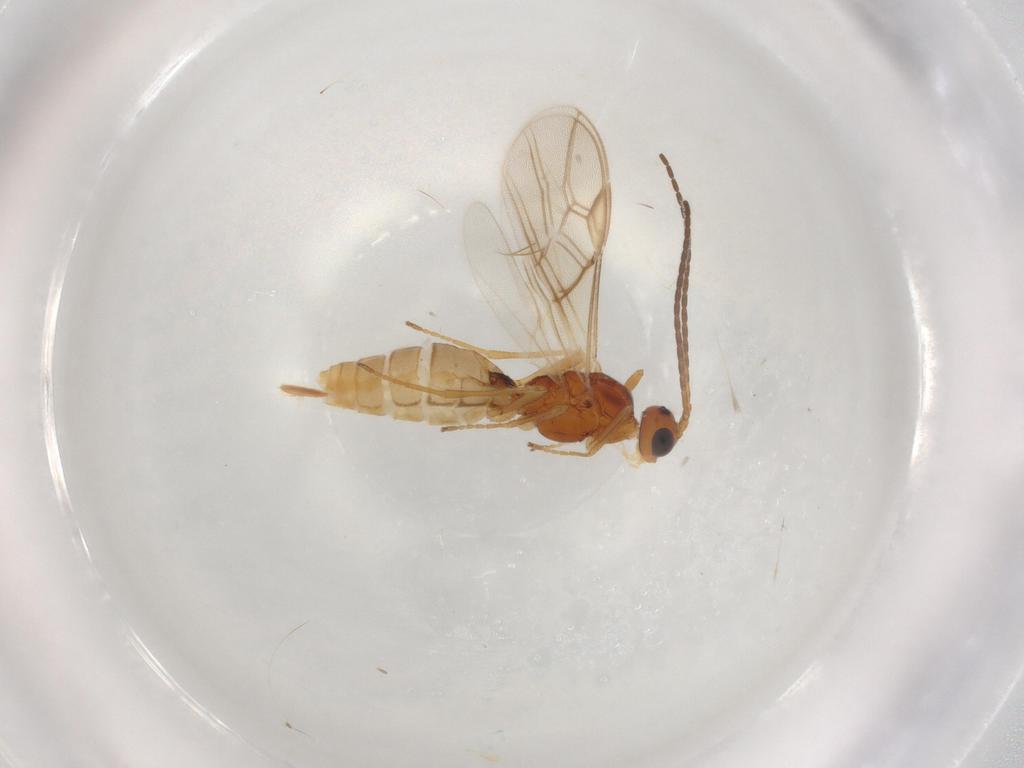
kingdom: Animalia
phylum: Arthropoda
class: Insecta
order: Hymenoptera
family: Braconidae
